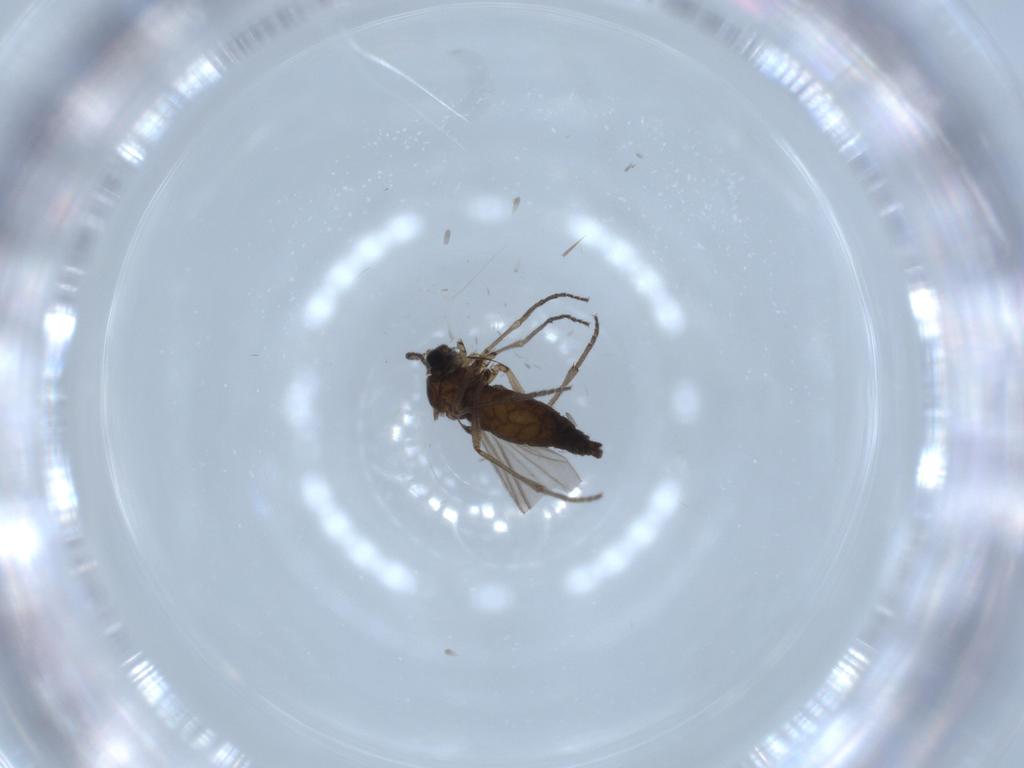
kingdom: Animalia
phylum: Arthropoda
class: Insecta
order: Diptera
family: Sciaridae
